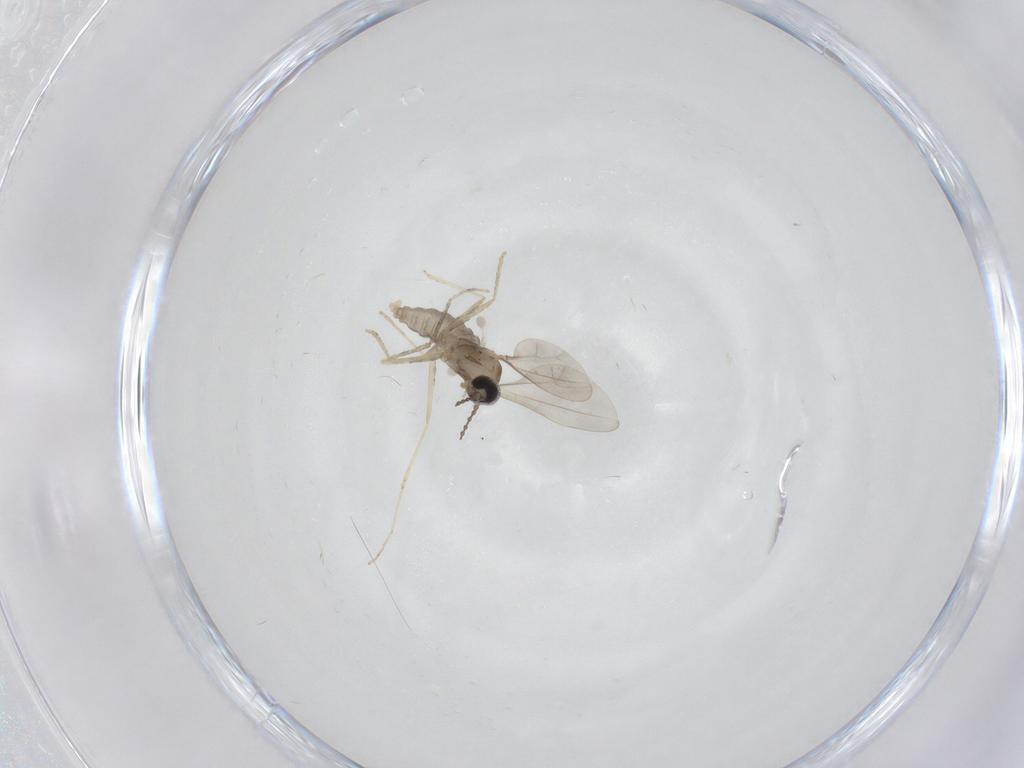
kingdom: Animalia
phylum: Arthropoda
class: Insecta
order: Diptera
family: Cecidomyiidae
